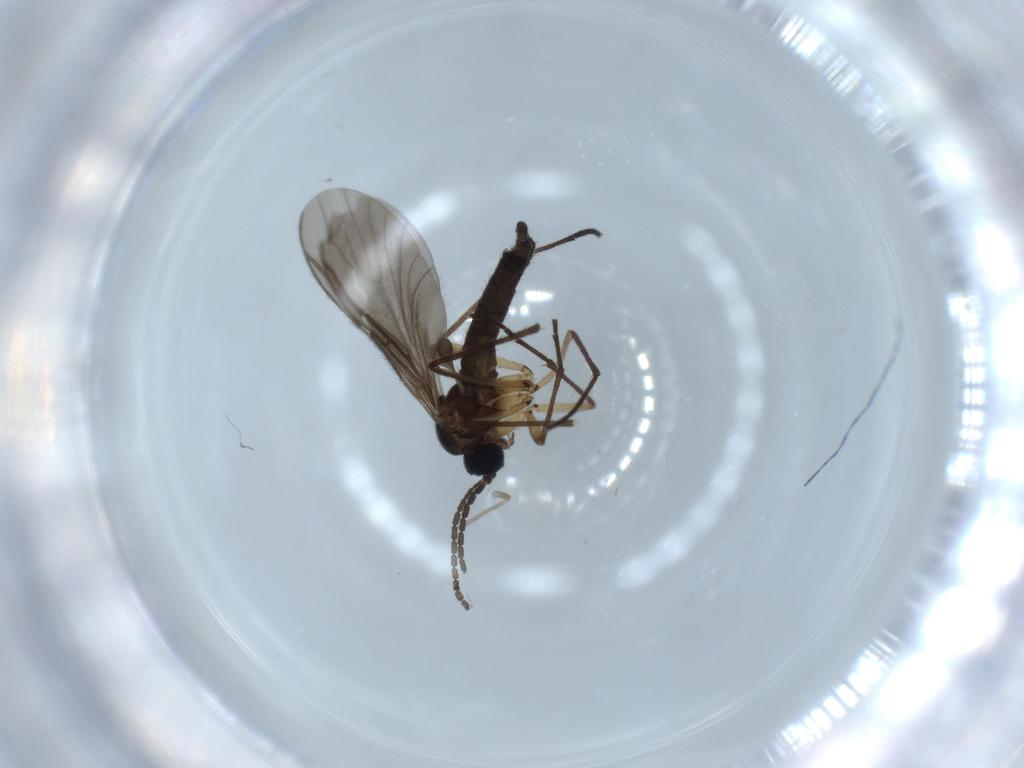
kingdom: Animalia
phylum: Arthropoda
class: Insecta
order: Diptera
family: Sciaridae
